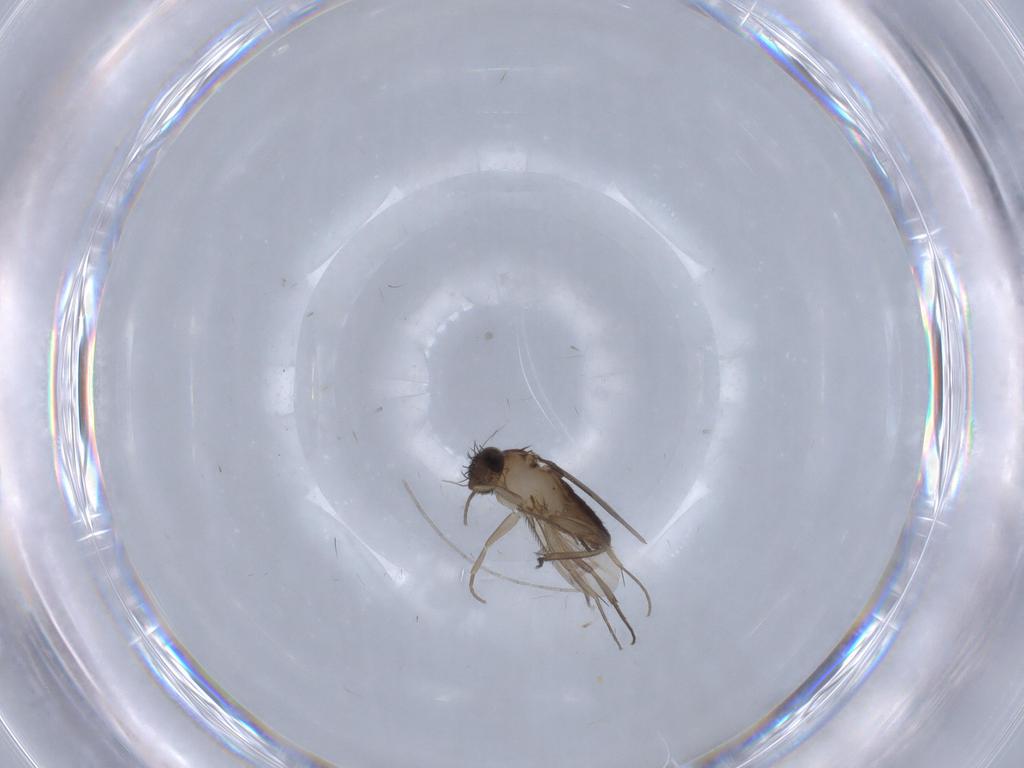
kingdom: Animalia
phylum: Arthropoda
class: Insecta
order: Diptera
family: Phoridae
